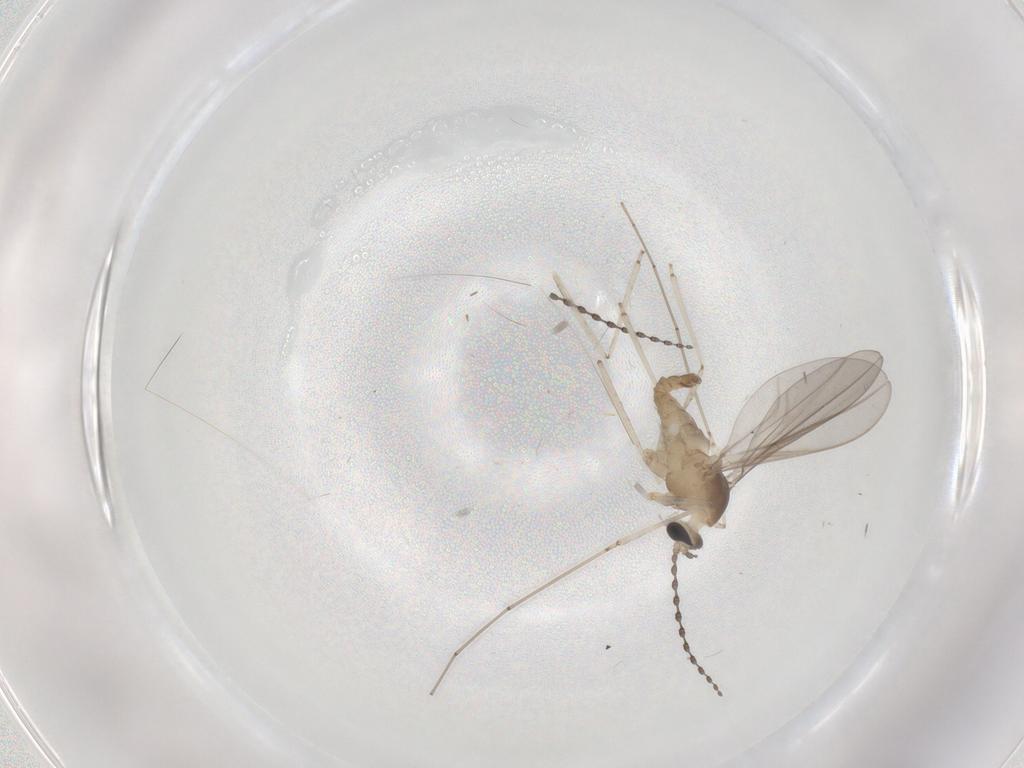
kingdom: Animalia
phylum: Arthropoda
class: Insecta
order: Diptera
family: Cecidomyiidae
